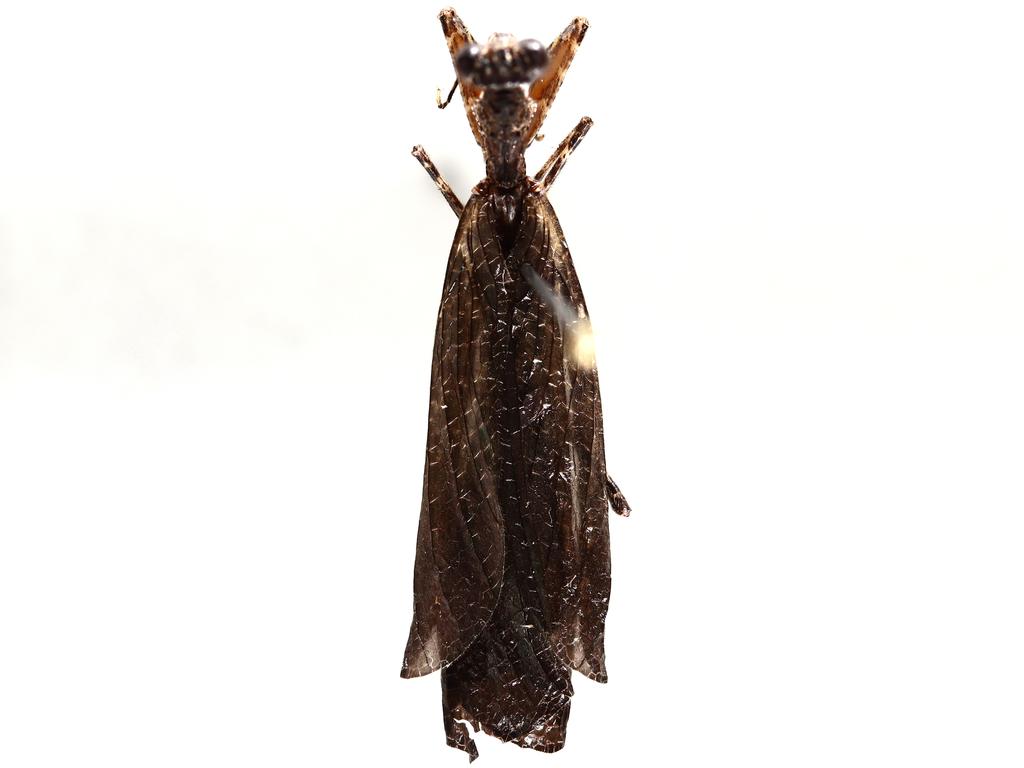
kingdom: Animalia
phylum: Arthropoda
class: Insecta
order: Diptera
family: Chironomidae
